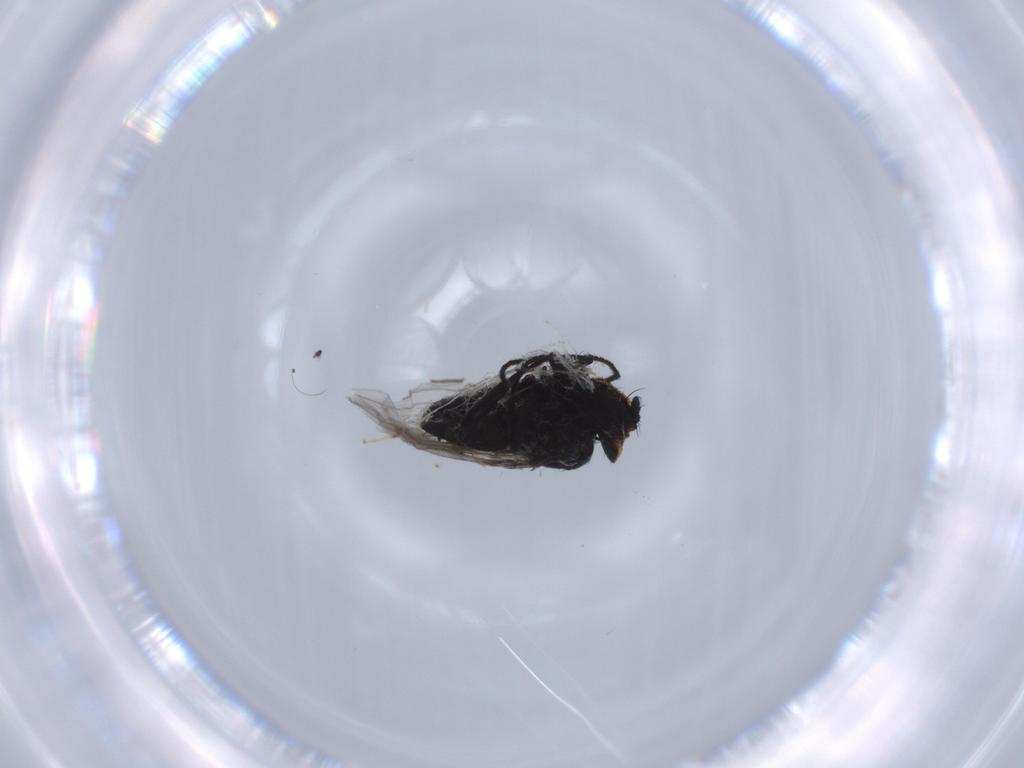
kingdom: Animalia
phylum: Arthropoda
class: Insecta
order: Diptera
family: Milichiidae
